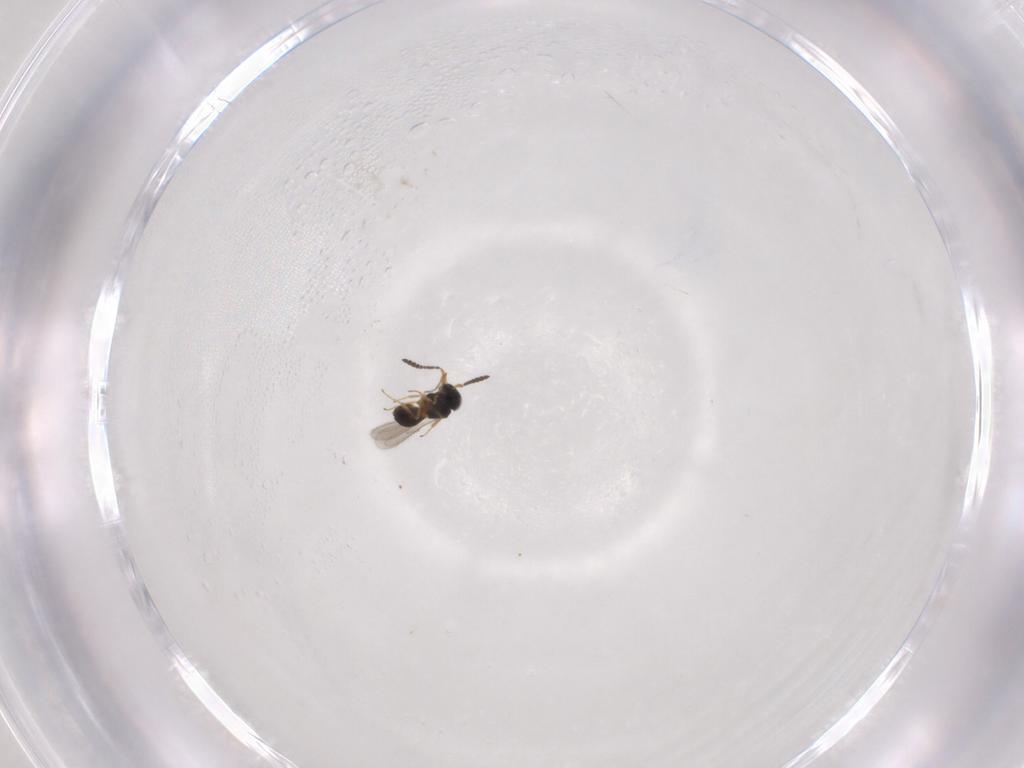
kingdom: Animalia
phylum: Arthropoda
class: Insecta
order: Hymenoptera
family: Scelionidae
